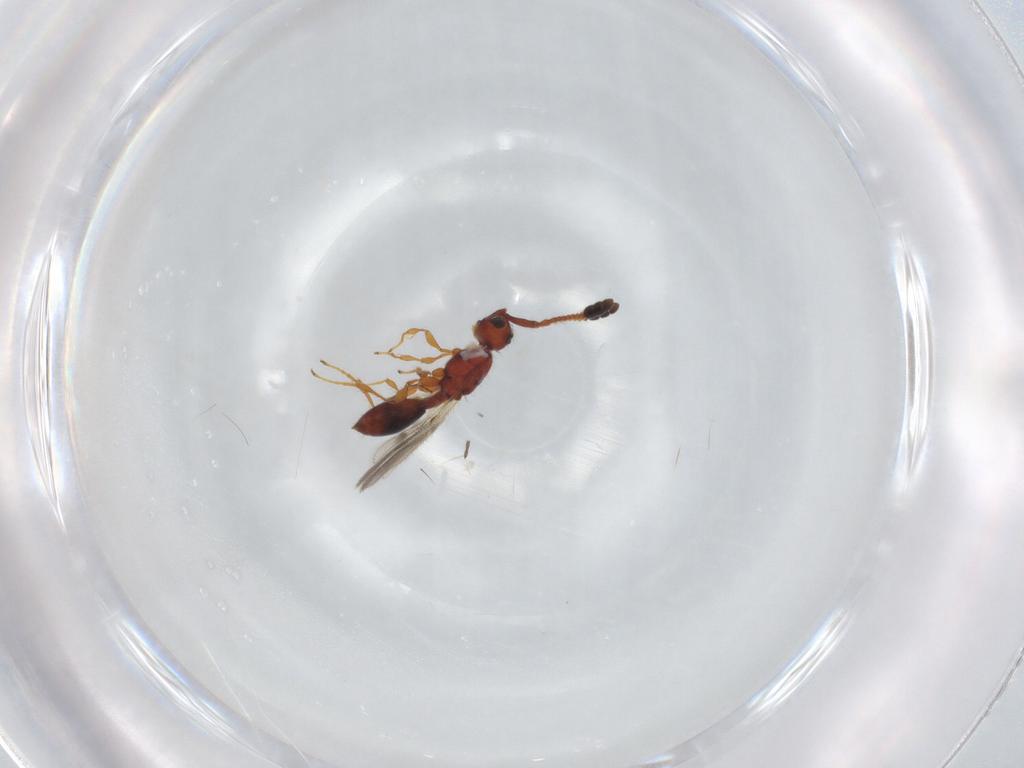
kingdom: Animalia
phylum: Arthropoda
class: Insecta
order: Hymenoptera
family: Diapriidae
